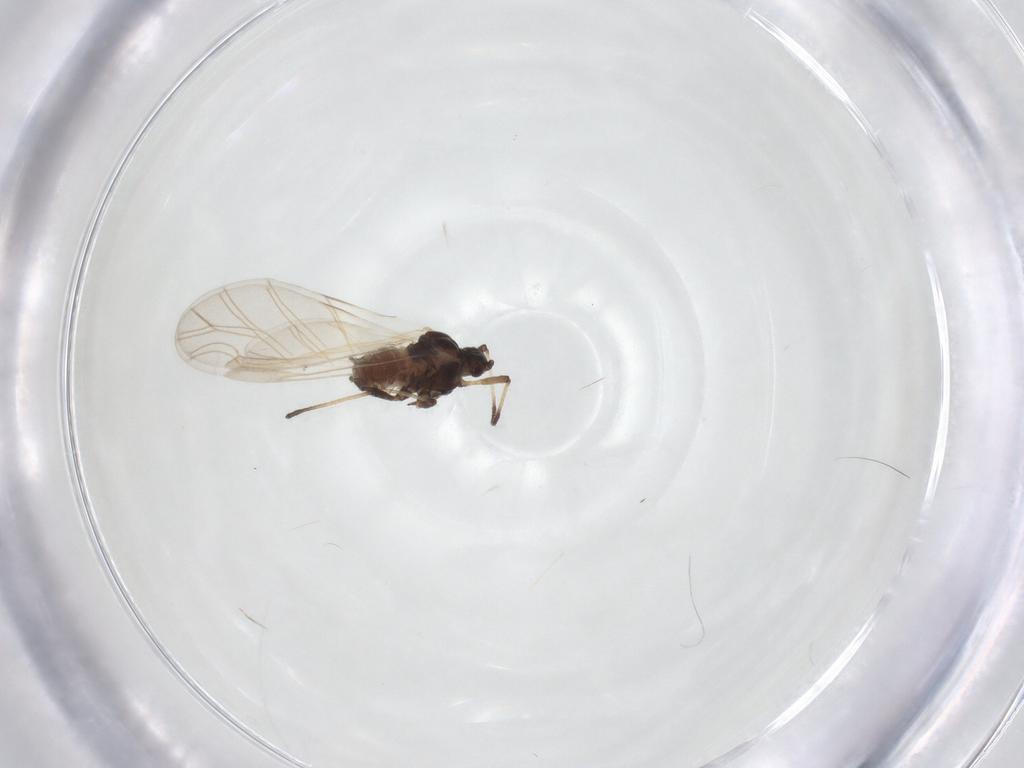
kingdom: Animalia
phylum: Arthropoda
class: Insecta
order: Hemiptera
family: Aphididae
